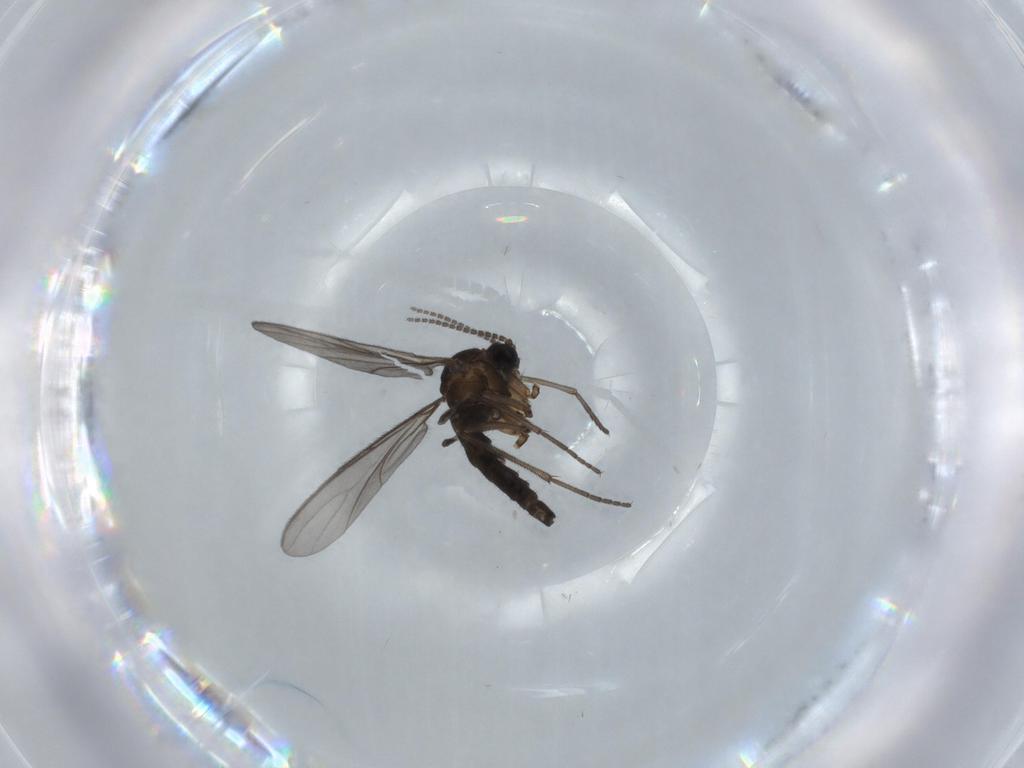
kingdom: Animalia
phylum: Arthropoda
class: Insecta
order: Diptera
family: Sciaridae
